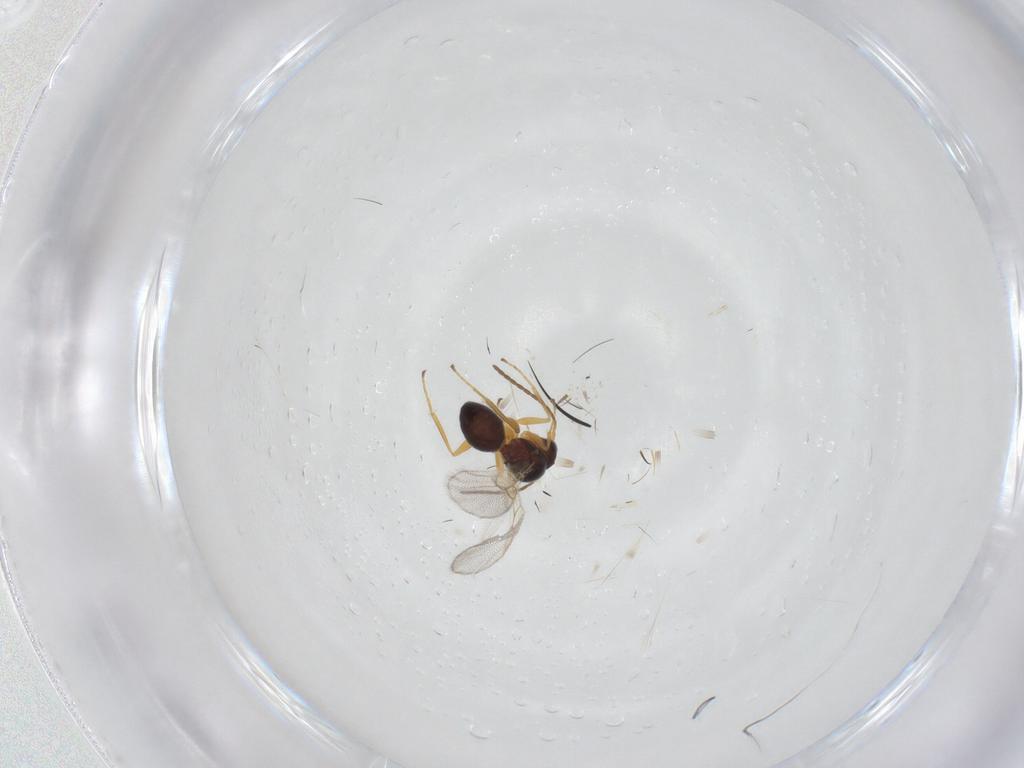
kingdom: Animalia
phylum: Arthropoda
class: Insecta
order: Hymenoptera
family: Figitidae
